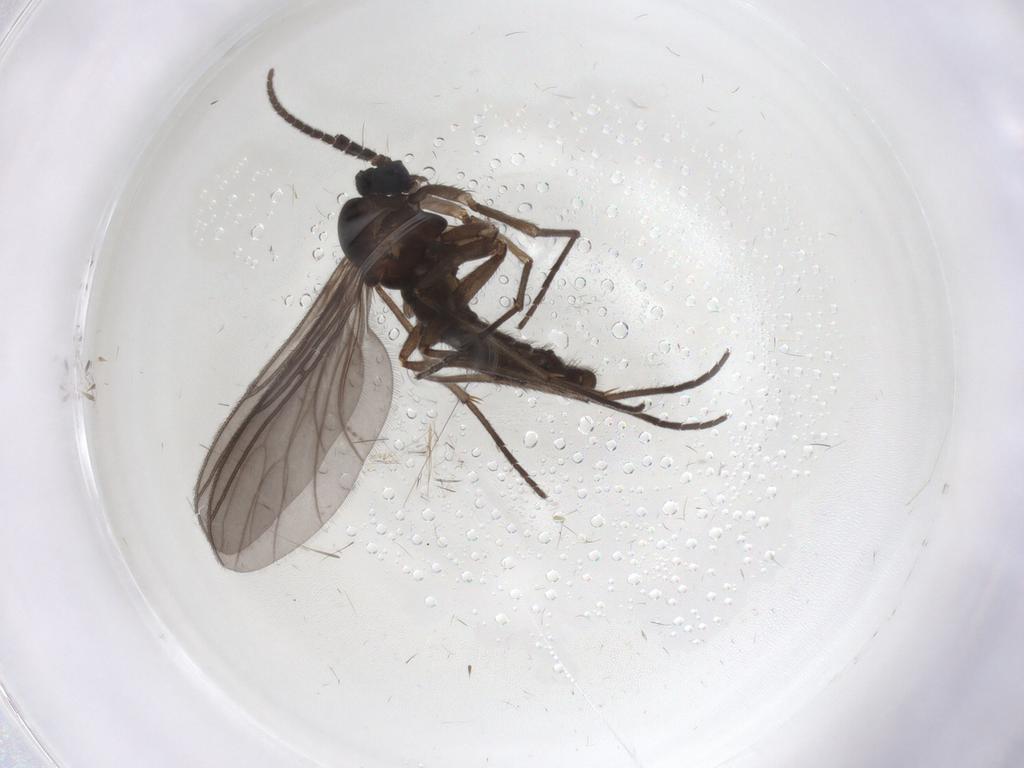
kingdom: Animalia
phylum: Arthropoda
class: Insecta
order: Diptera
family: Sciaridae
